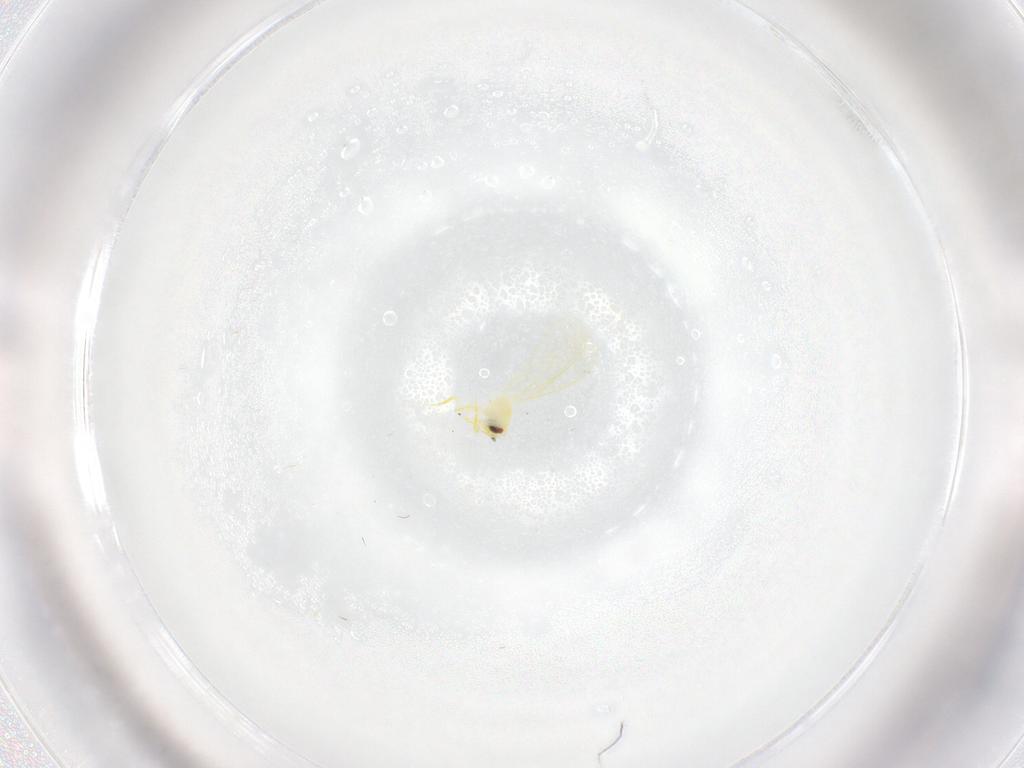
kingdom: Animalia
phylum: Arthropoda
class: Insecta
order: Hemiptera
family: Aleyrodidae
